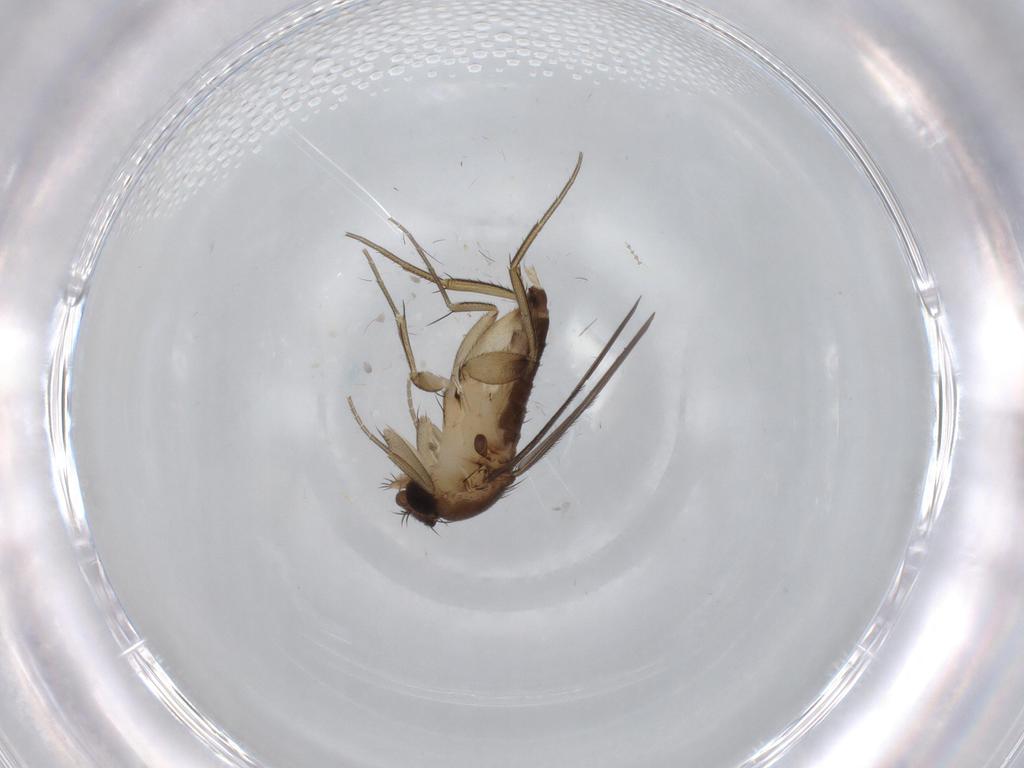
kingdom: Animalia
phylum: Arthropoda
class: Insecta
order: Diptera
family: Phoridae
